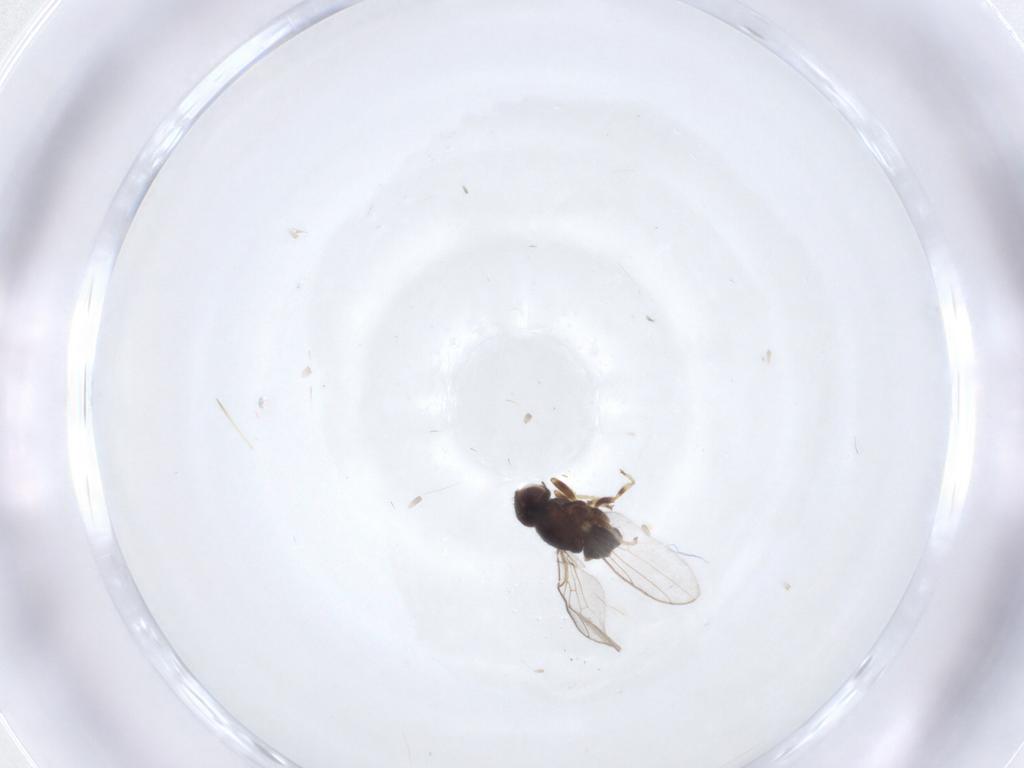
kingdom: Animalia
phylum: Arthropoda
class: Insecta
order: Diptera
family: Chloropidae
